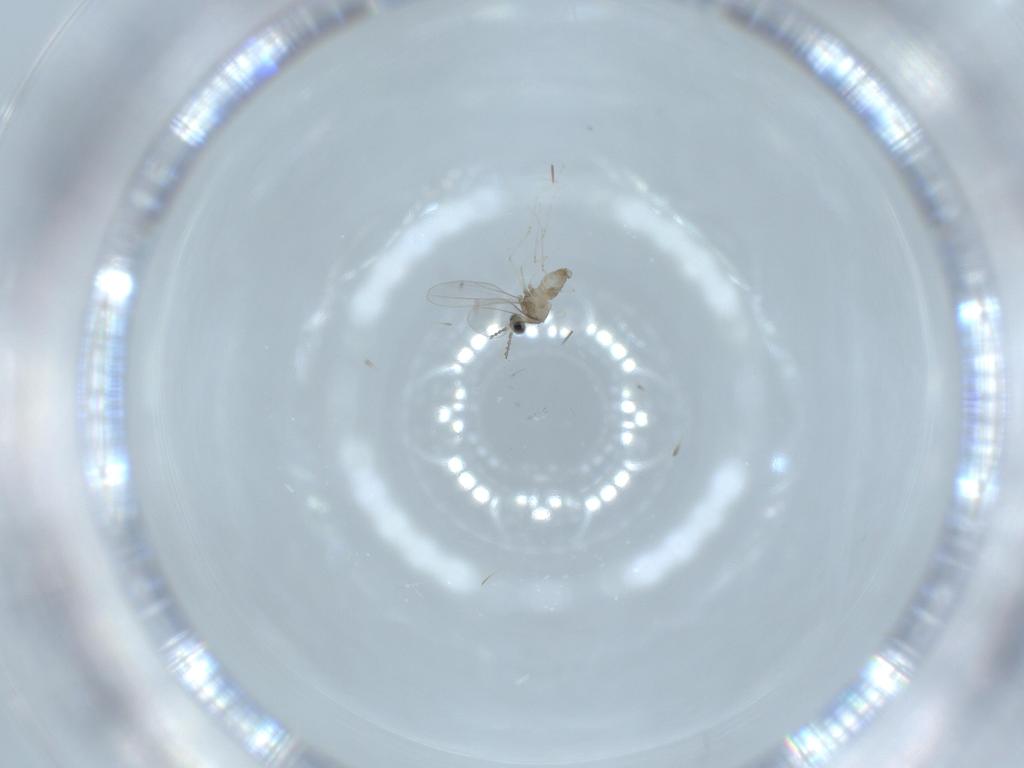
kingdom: Animalia
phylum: Arthropoda
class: Insecta
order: Diptera
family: Cecidomyiidae
